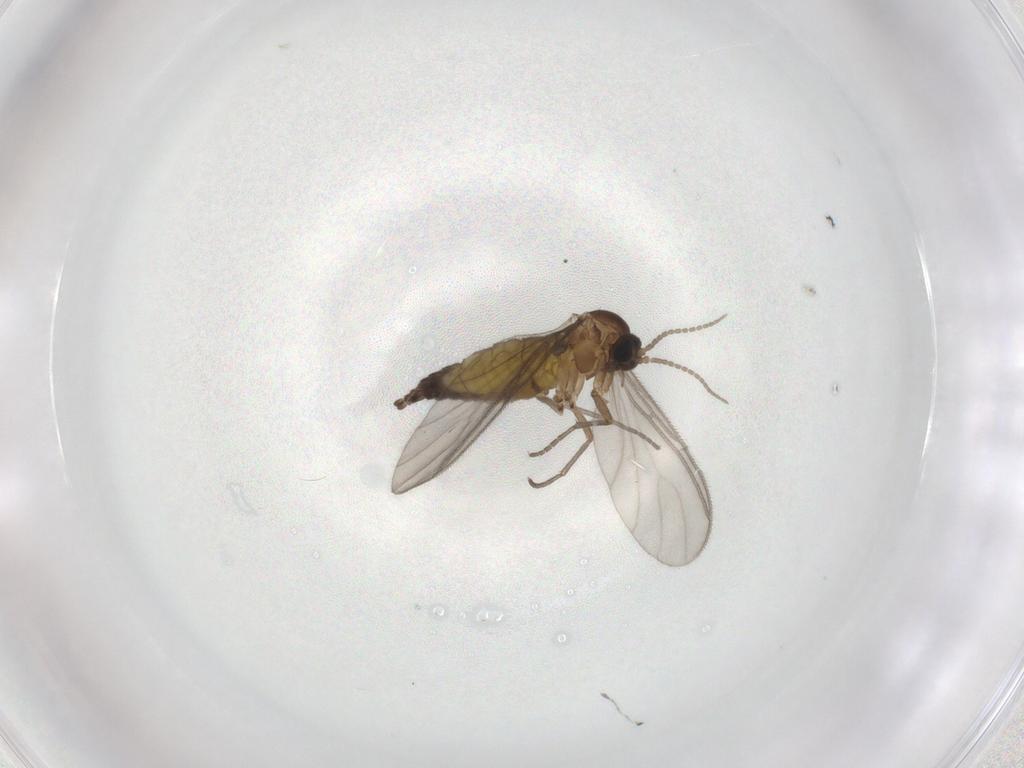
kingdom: Animalia
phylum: Arthropoda
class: Insecta
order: Diptera
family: Sciaridae
